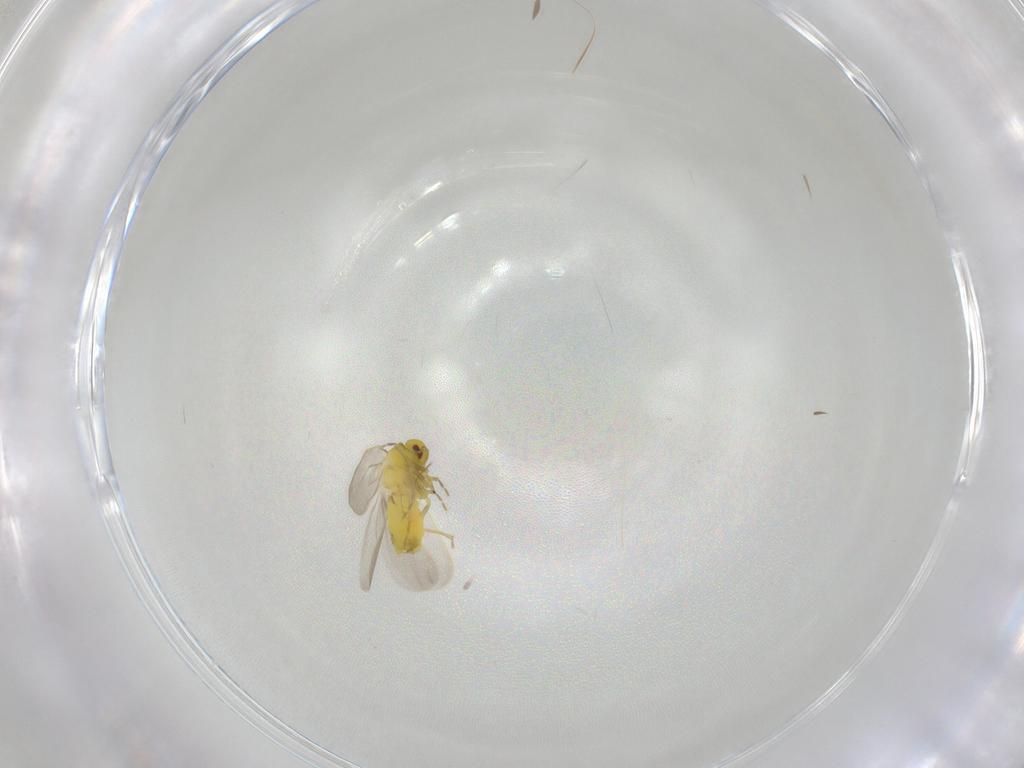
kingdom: Animalia
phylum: Arthropoda
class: Insecta
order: Hemiptera
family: Aleyrodidae
